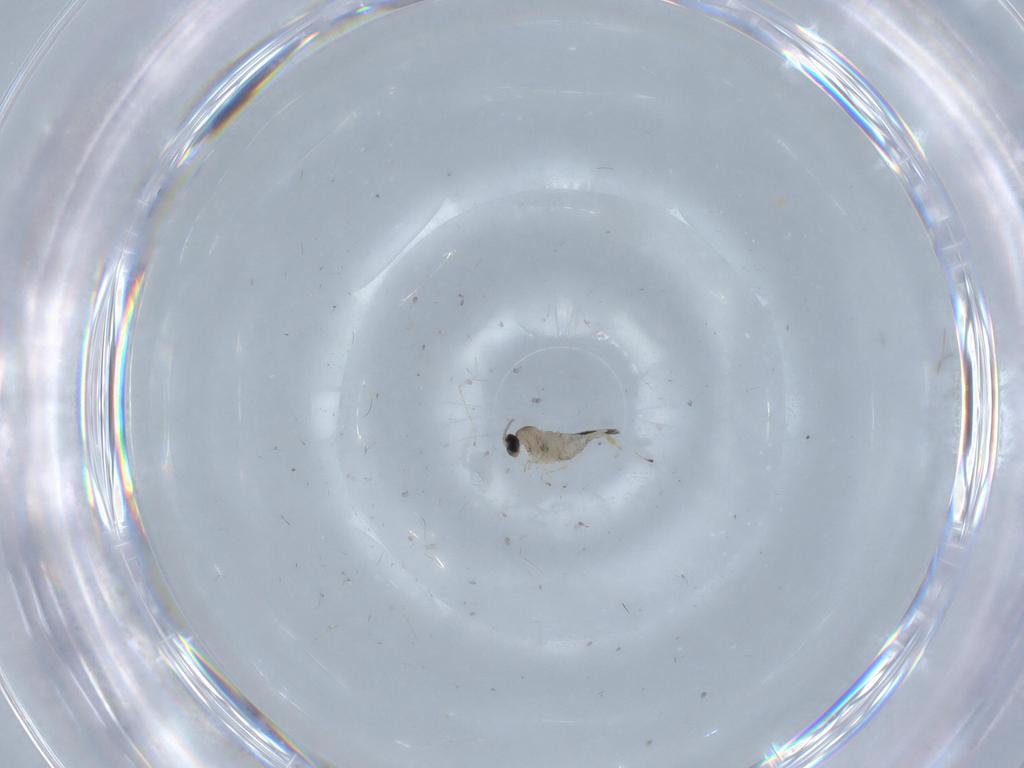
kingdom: Animalia
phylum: Arthropoda
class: Insecta
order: Diptera
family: Cecidomyiidae
